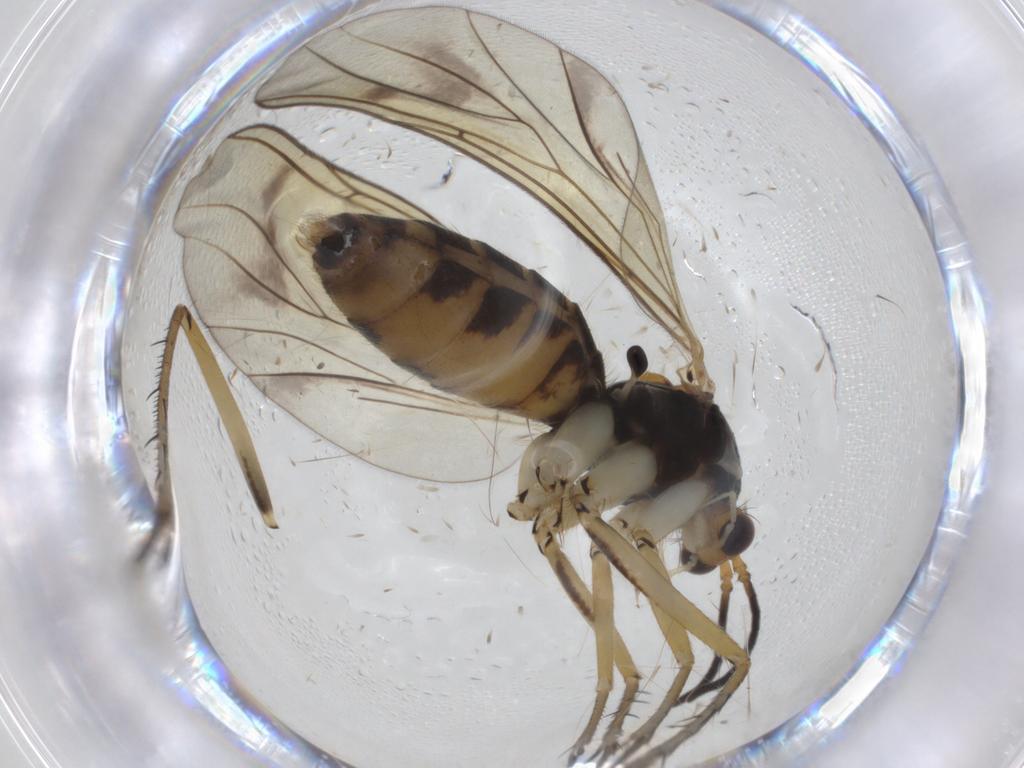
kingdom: Animalia
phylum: Arthropoda
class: Insecta
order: Diptera
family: Mycetophilidae
